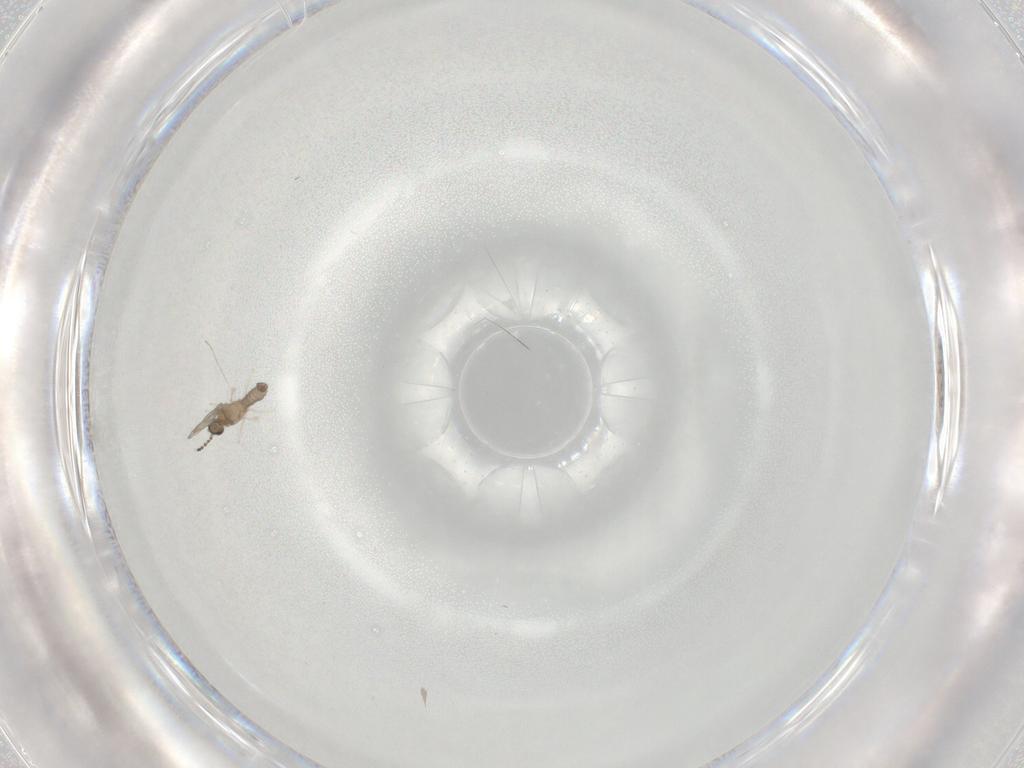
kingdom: Animalia
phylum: Arthropoda
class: Insecta
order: Diptera
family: Cecidomyiidae
